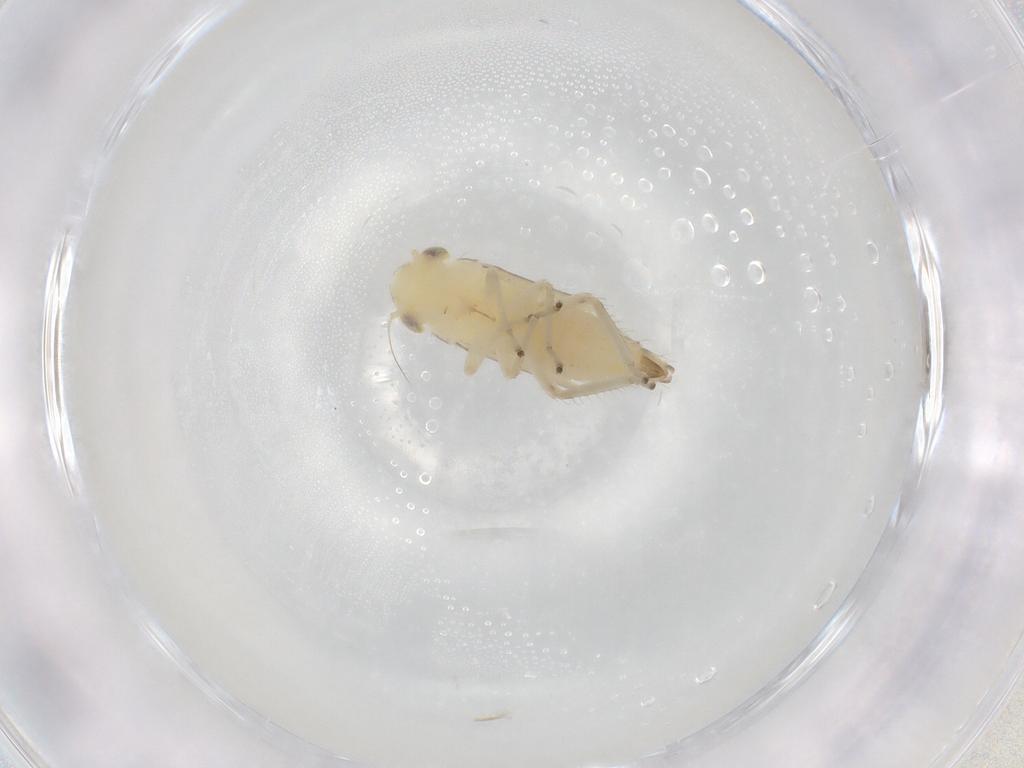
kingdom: Animalia
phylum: Arthropoda
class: Insecta
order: Hemiptera
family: Cicadellidae
